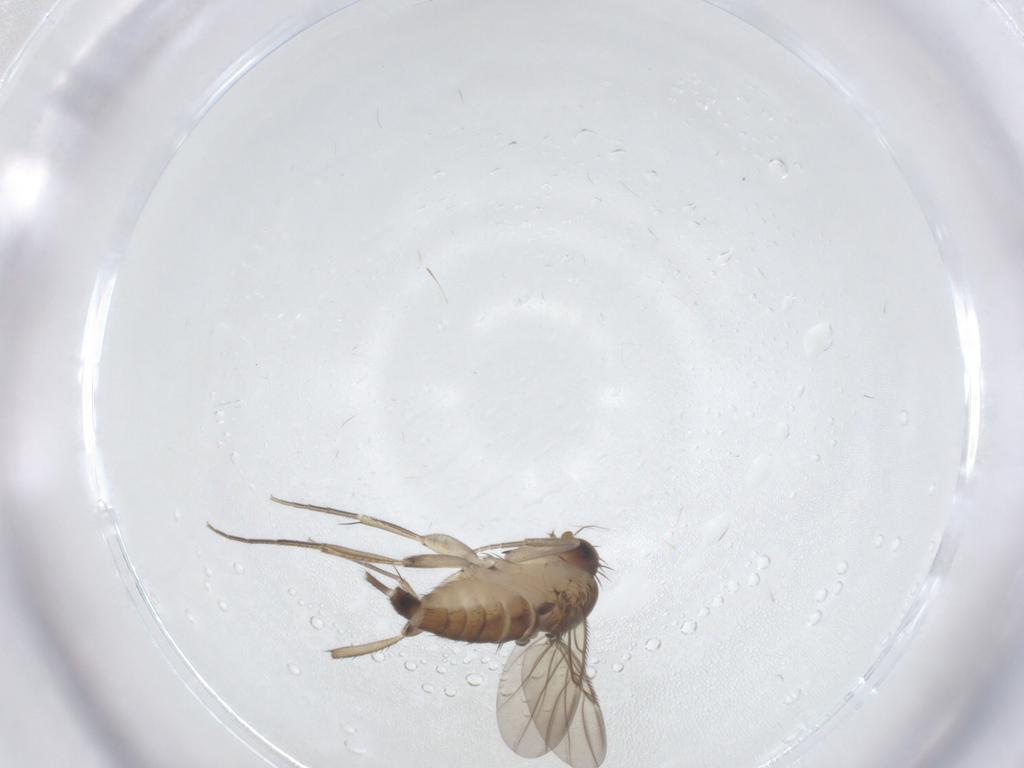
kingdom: Animalia
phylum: Arthropoda
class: Insecta
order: Diptera
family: Phoridae
